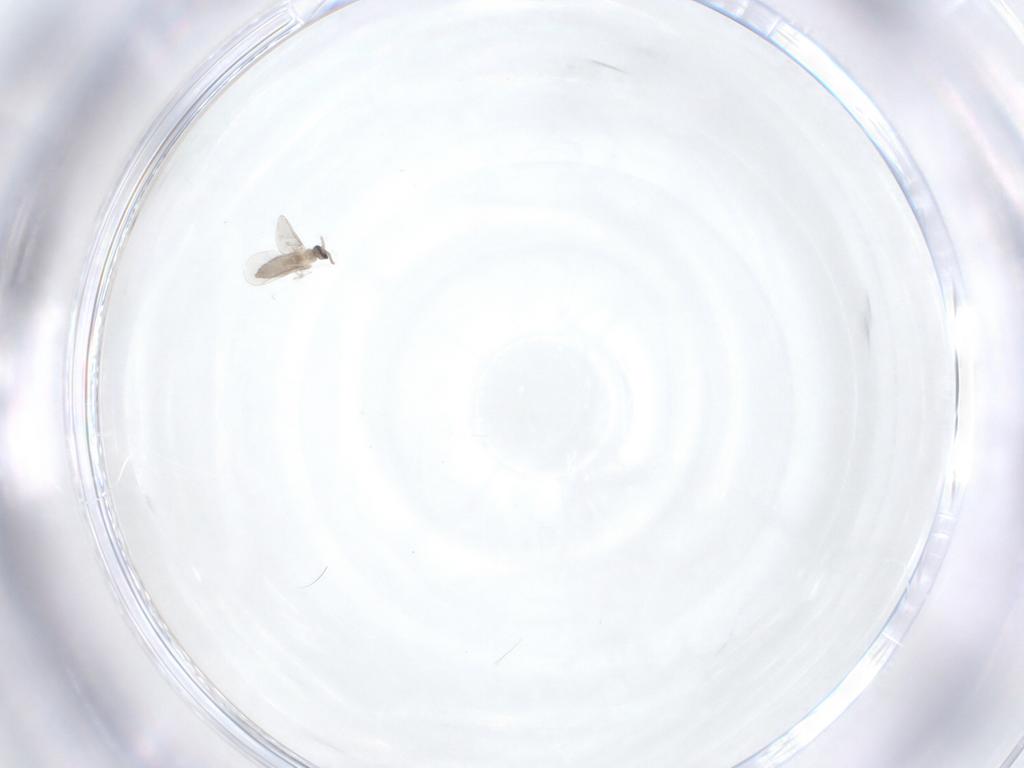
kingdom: Animalia
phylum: Arthropoda
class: Insecta
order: Diptera
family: Cecidomyiidae
